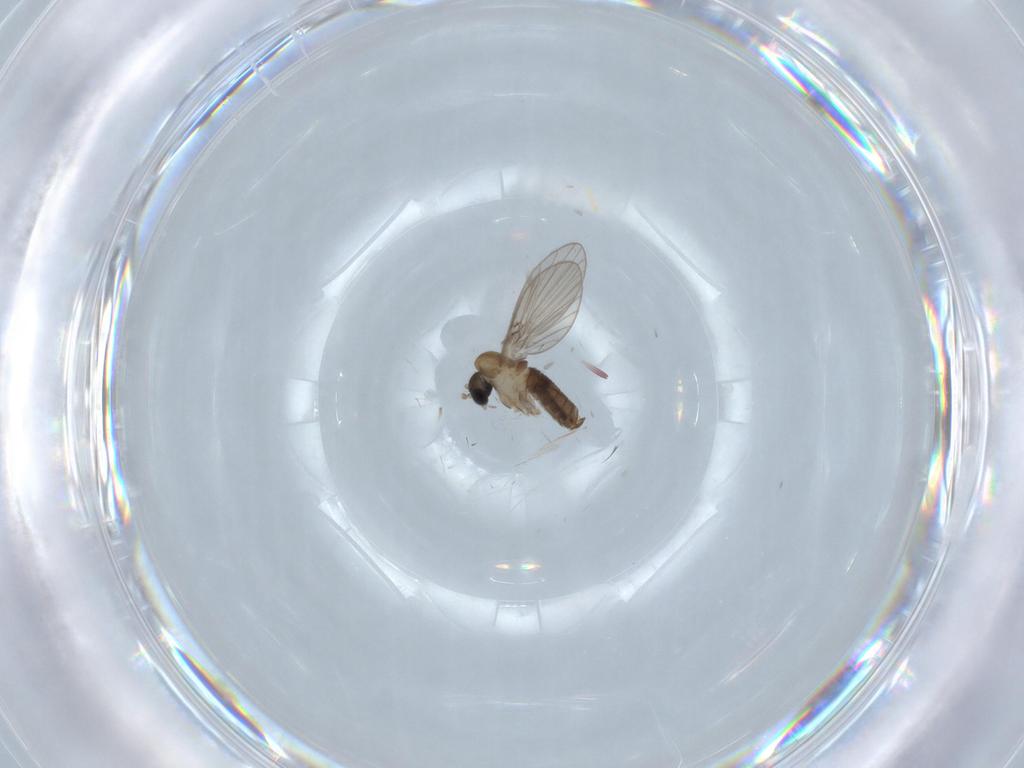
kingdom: Animalia
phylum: Arthropoda
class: Insecta
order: Diptera
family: Psychodidae
